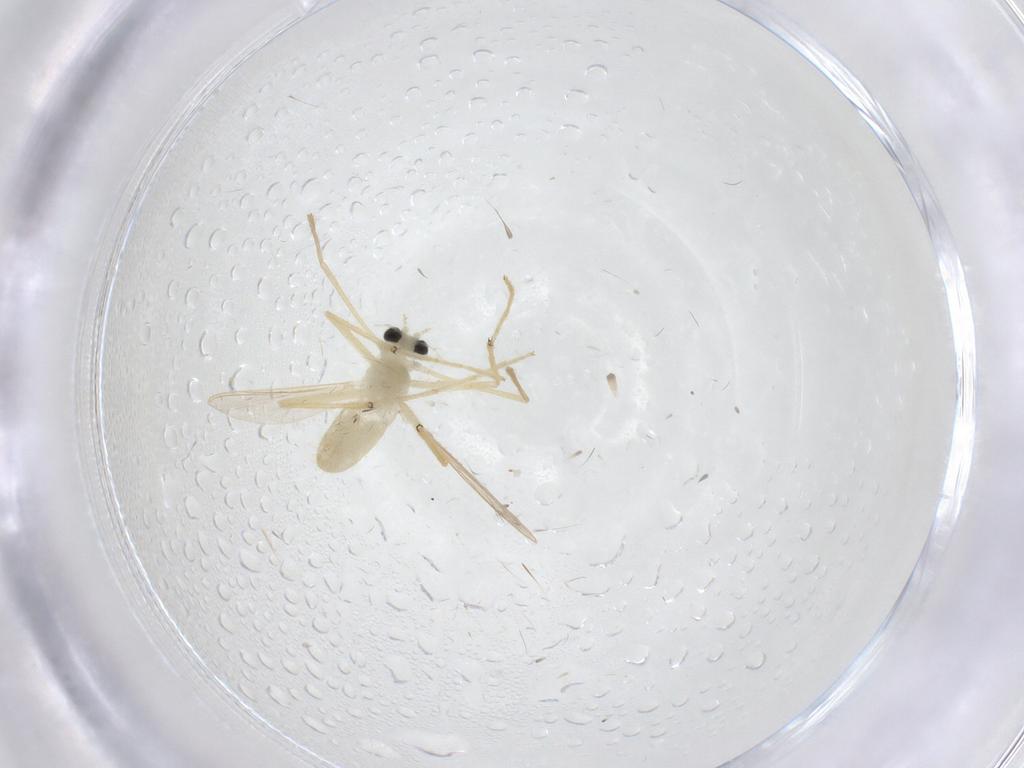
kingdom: Animalia
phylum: Arthropoda
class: Insecta
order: Diptera
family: Chironomidae
